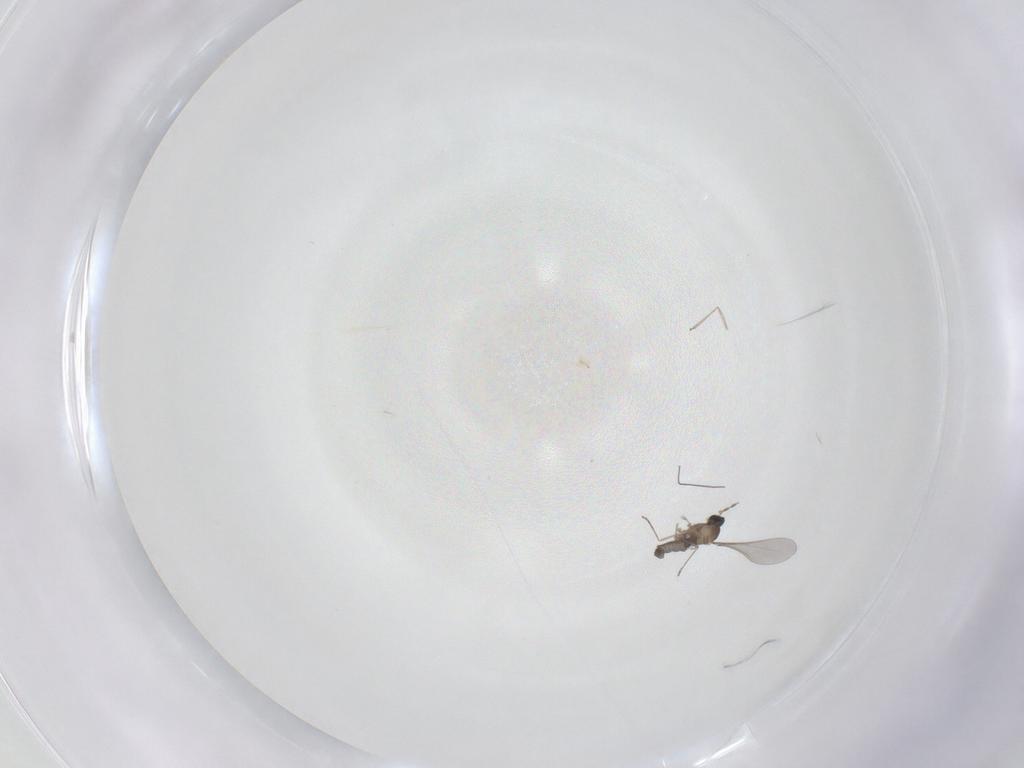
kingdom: Animalia
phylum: Arthropoda
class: Insecta
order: Diptera
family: Cecidomyiidae
